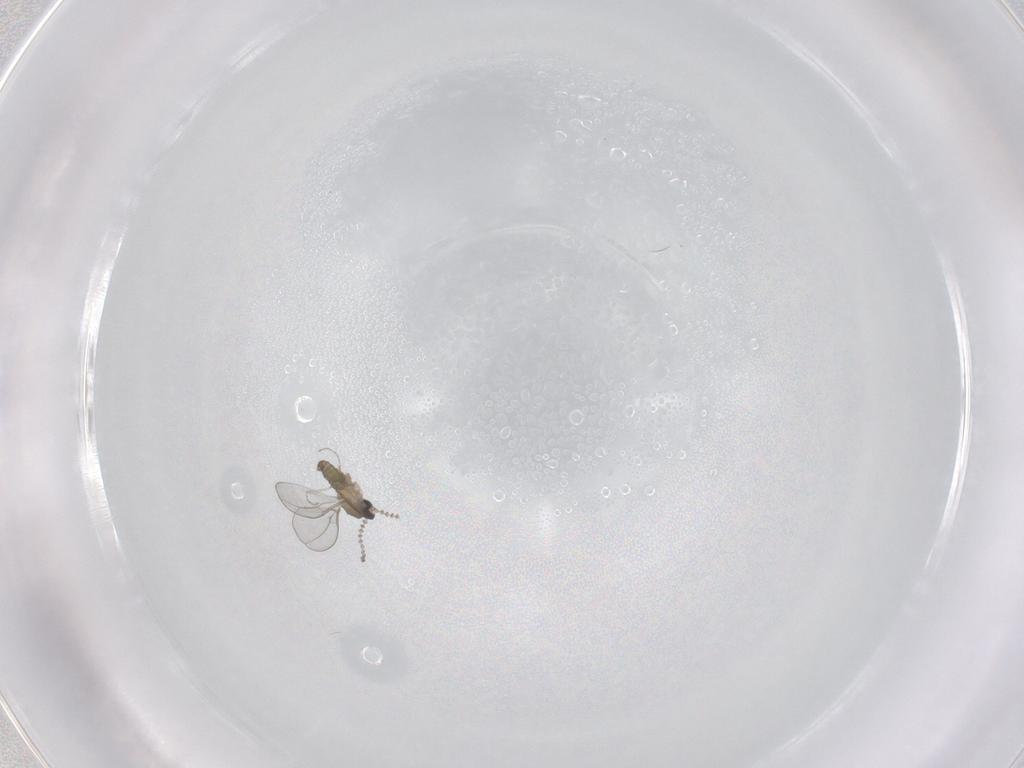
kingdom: Animalia
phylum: Arthropoda
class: Insecta
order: Diptera
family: Cecidomyiidae
